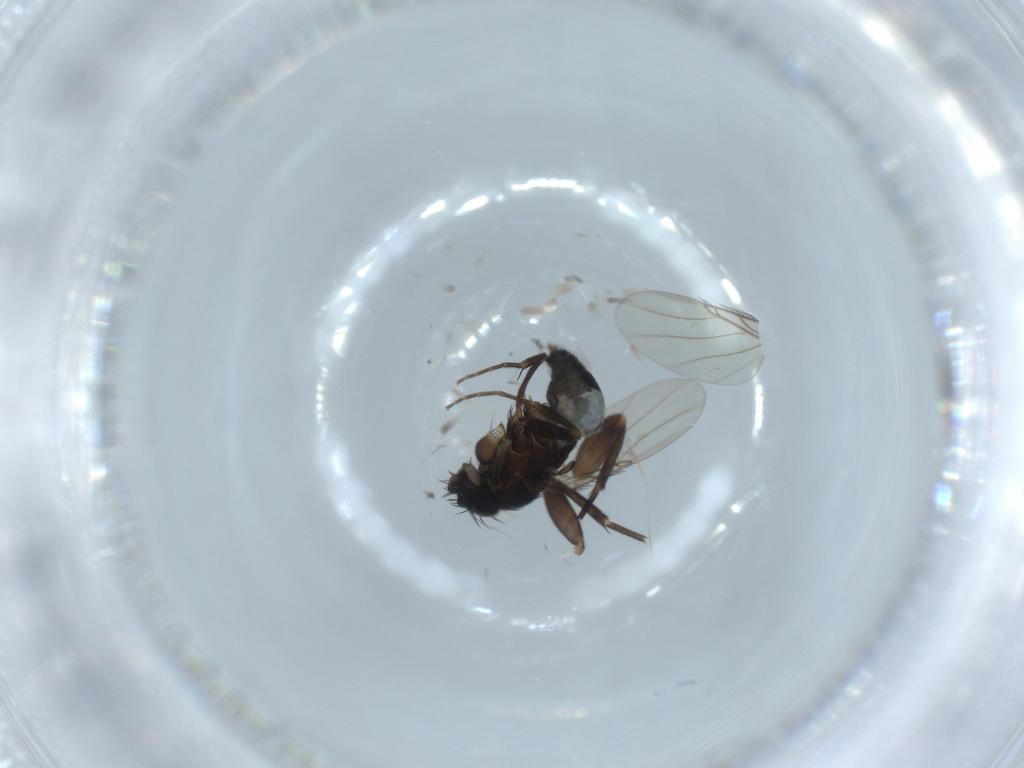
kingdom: Animalia
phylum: Arthropoda
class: Insecta
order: Diptera
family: Phoridae
